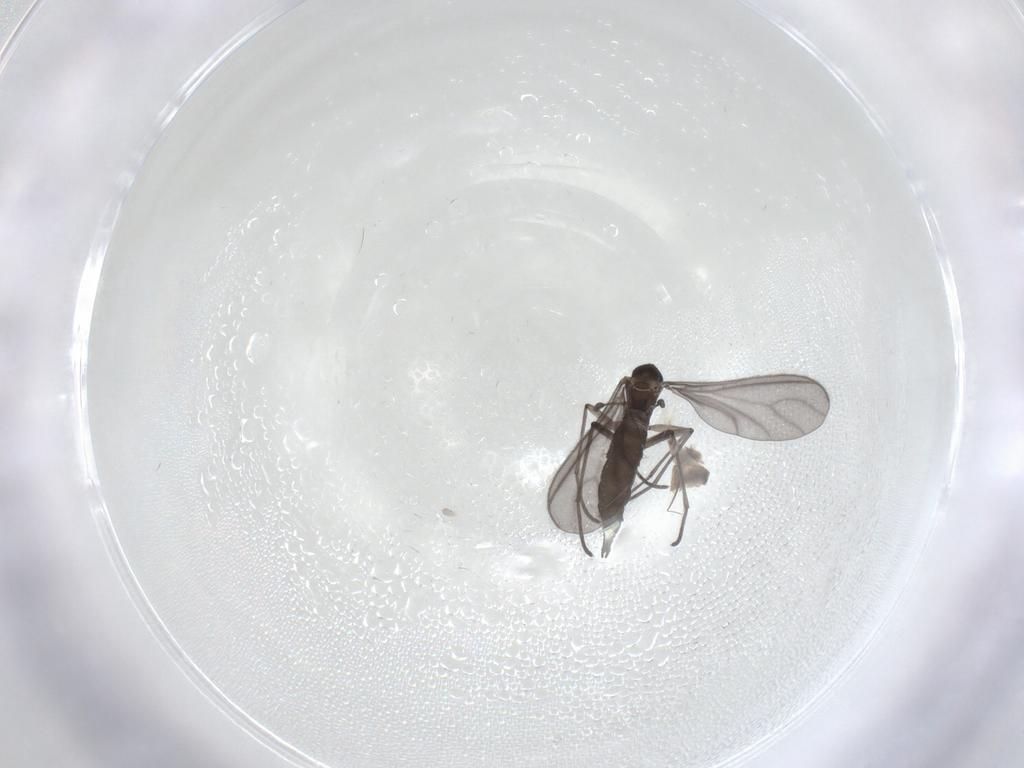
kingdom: Animalia
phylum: Arthropoda
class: Insecta
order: Diptera
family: Sciaridae
